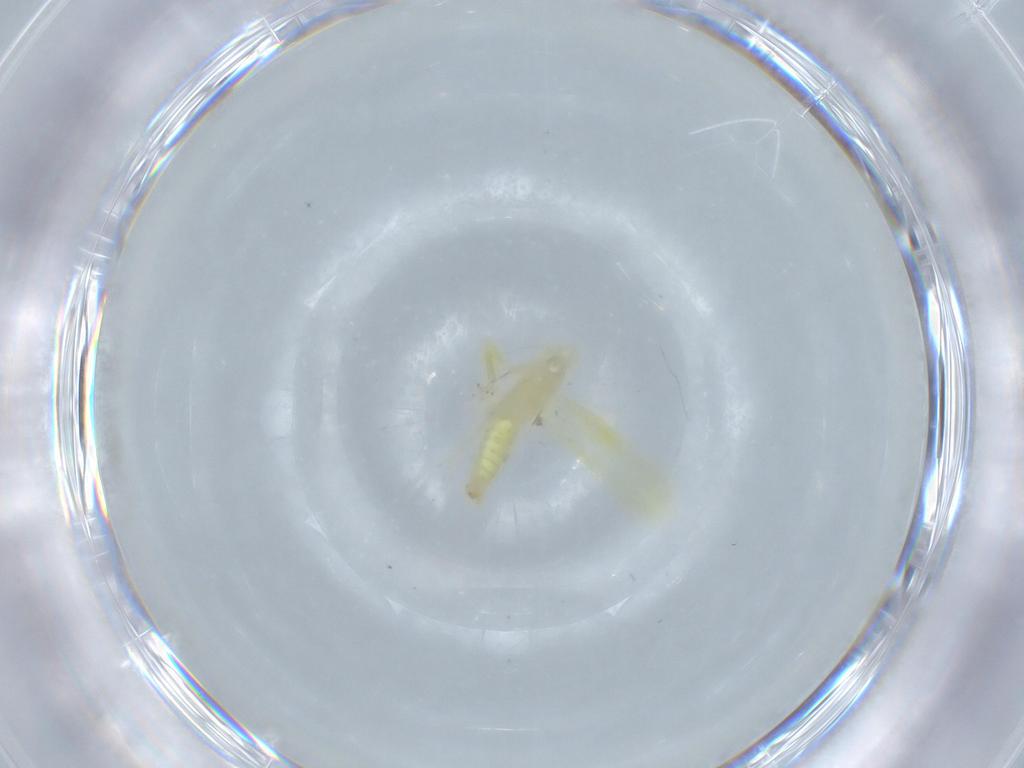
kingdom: Animalia
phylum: Arthropoda
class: Insecta
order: Hemiptera
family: Cicadellidae
